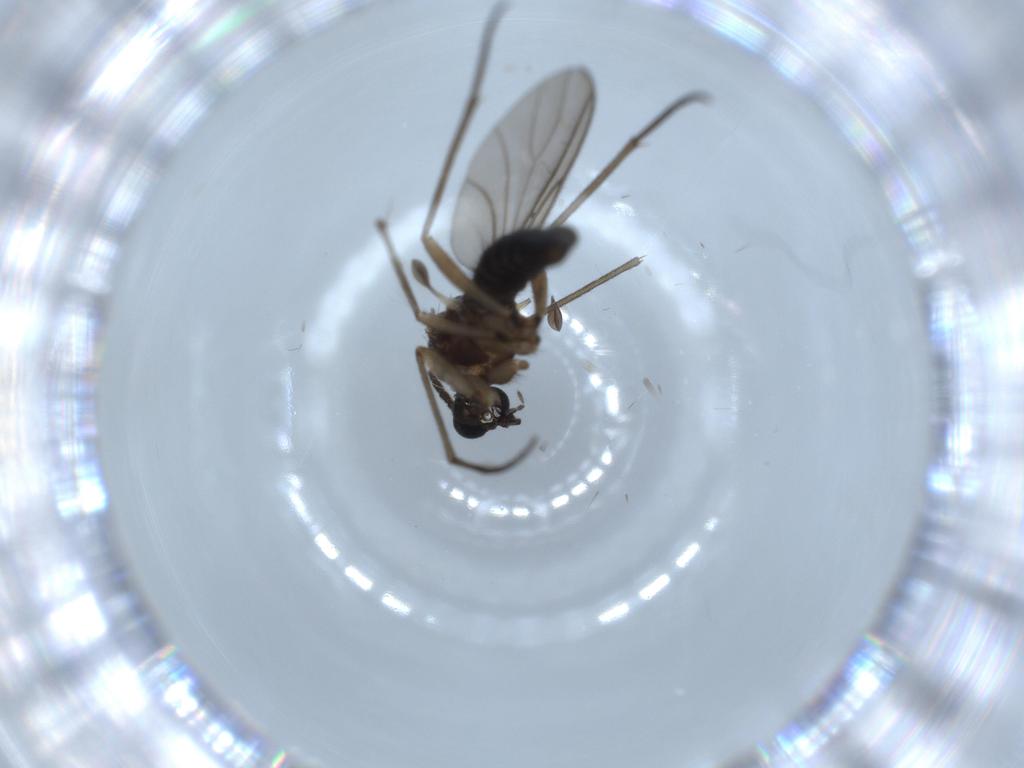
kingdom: Animalia
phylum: Arthropoda
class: Insecta
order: Diptera
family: Sciaridae
